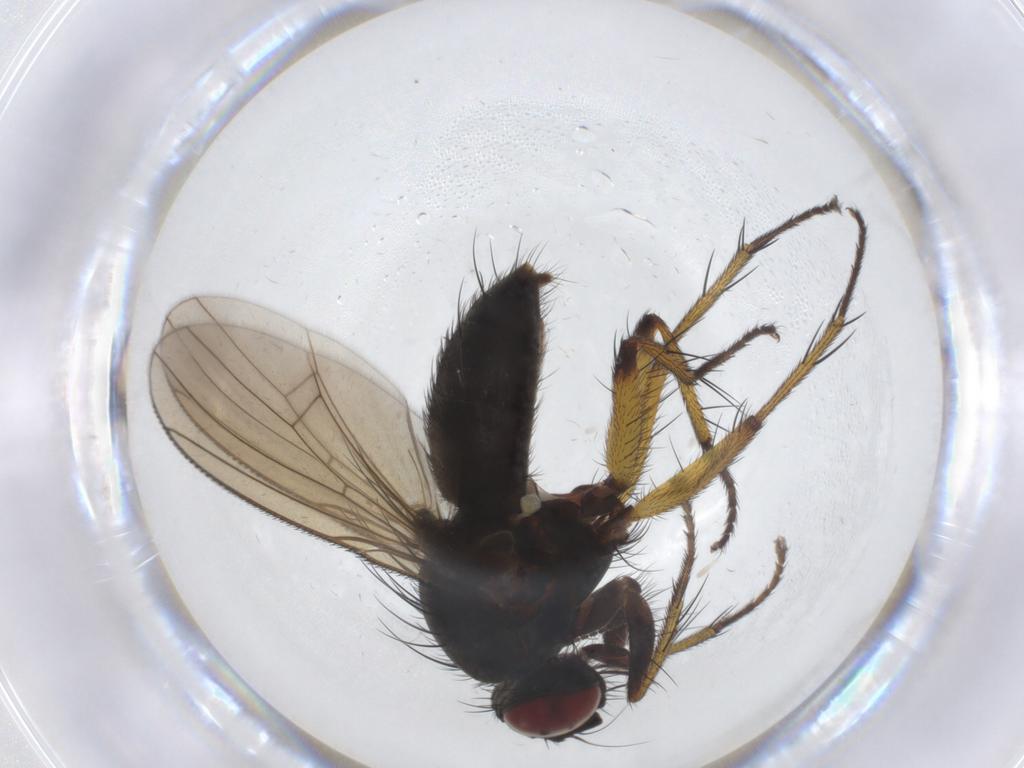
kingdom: Animalia
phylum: Arthropoda
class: Insecta
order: Diptera
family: Muscidae
